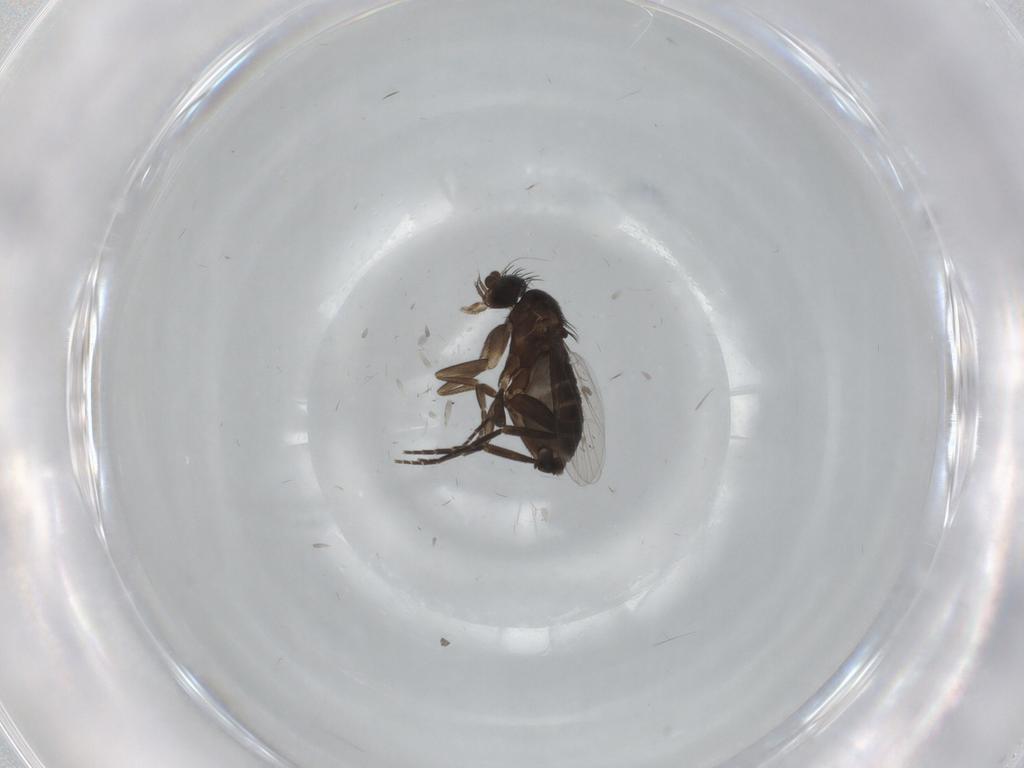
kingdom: Animalia
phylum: Arthropoda
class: Insecta
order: Diptera
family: Phoridae
